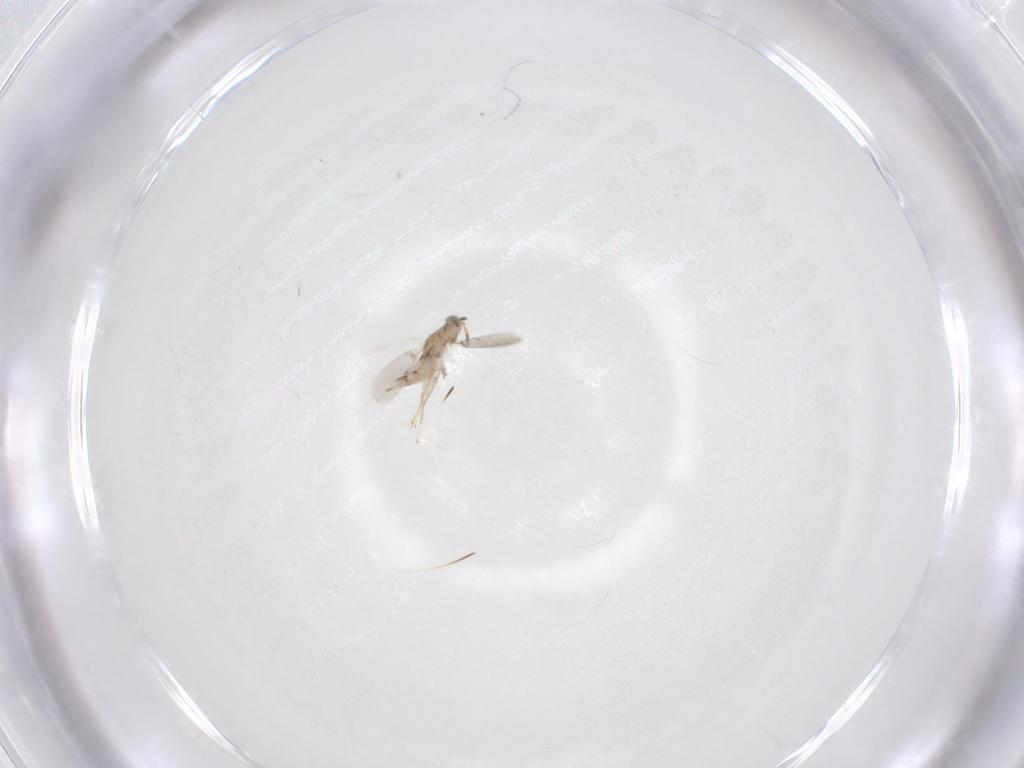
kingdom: Animalia
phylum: Arthropoda
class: Insecta
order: Hymenoptera
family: Aphelinidae
